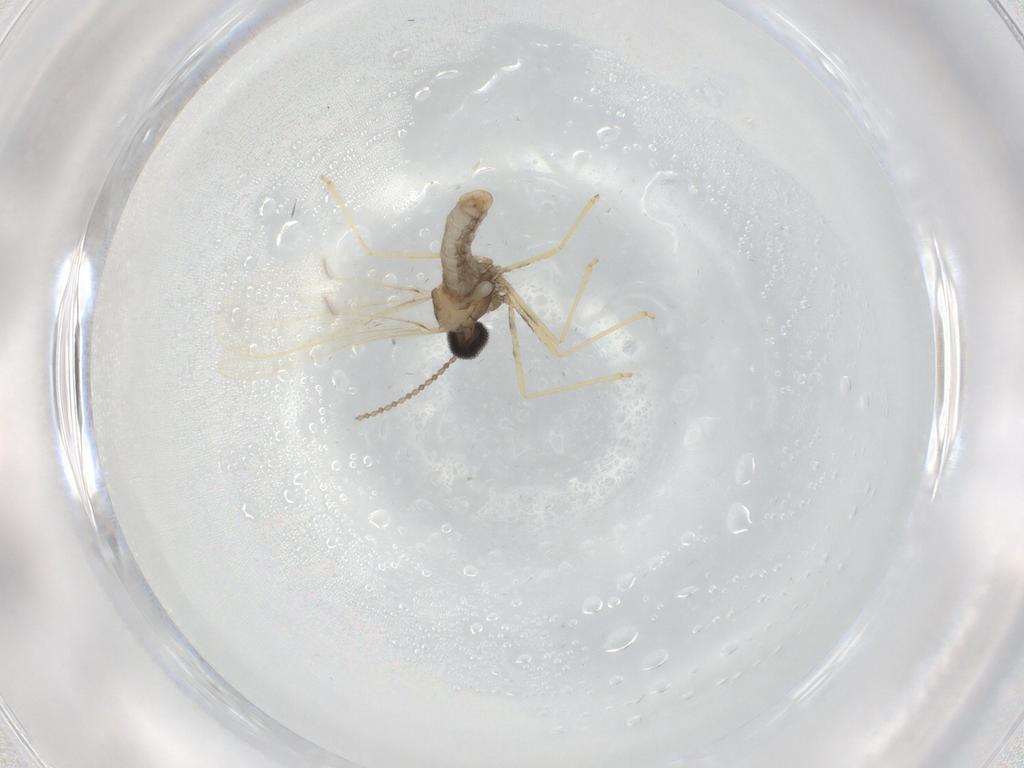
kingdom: Animalia
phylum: Arthropoda
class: Insecta
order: Diptera
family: Cecidomyiidae
